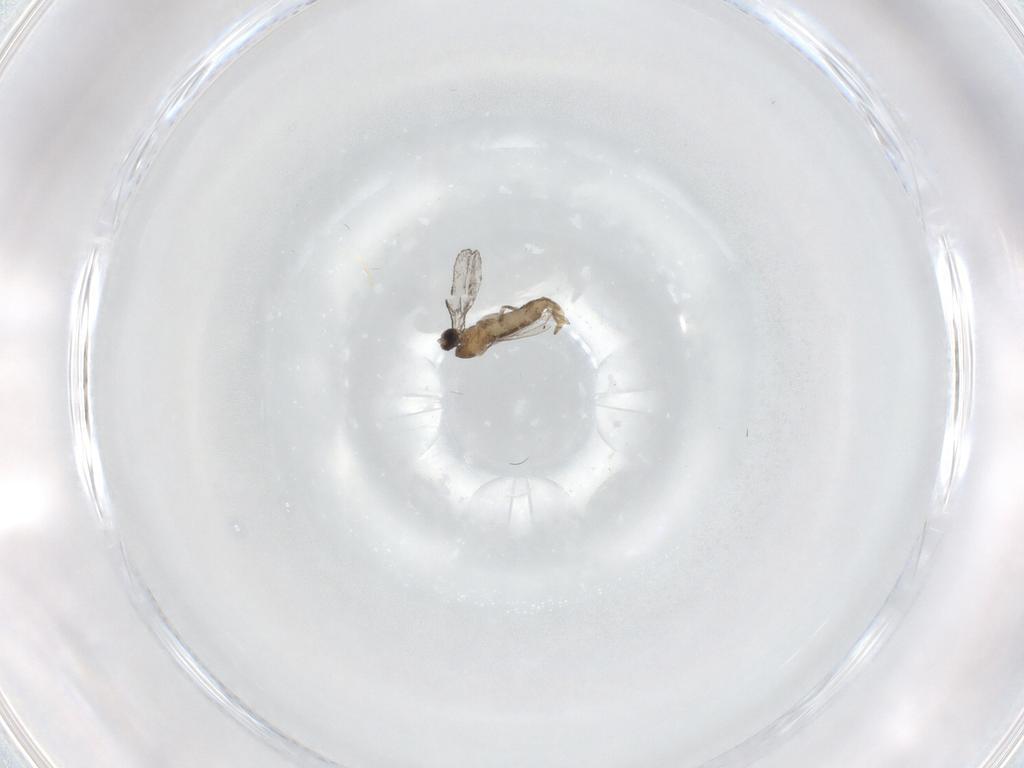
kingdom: Animalia
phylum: Arthropoda
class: Insecta
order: Diptera
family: Cecidomyiidae
